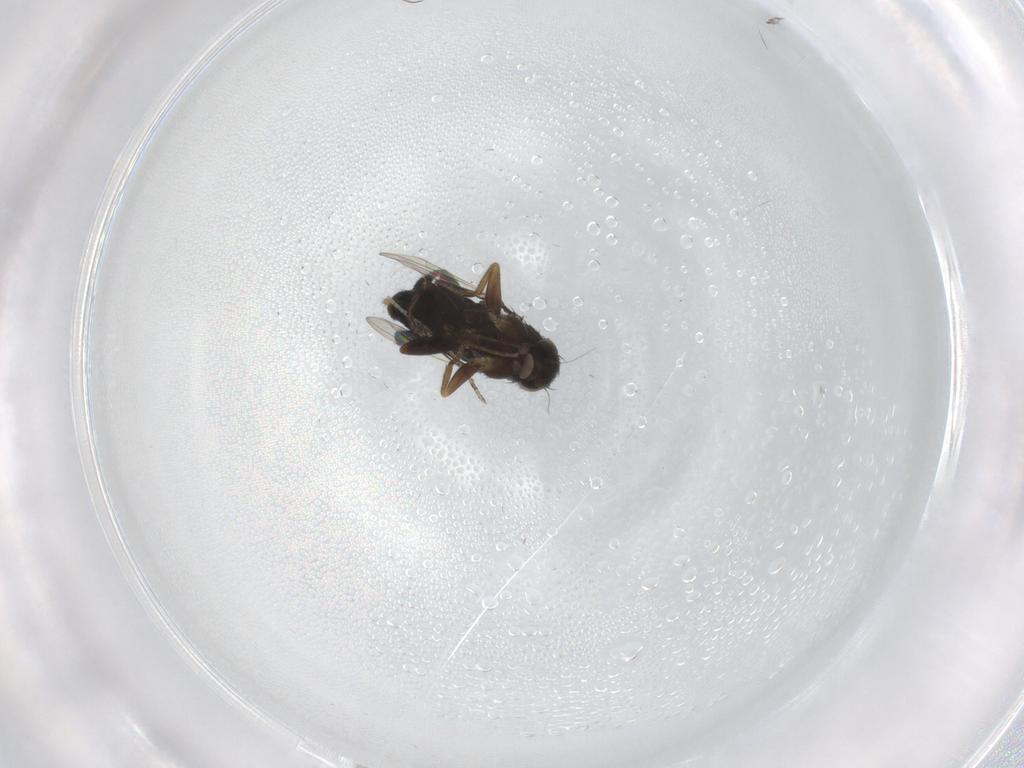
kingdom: Animalia
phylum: Arthropoda
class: Insecta
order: Diptera
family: Phoridae
